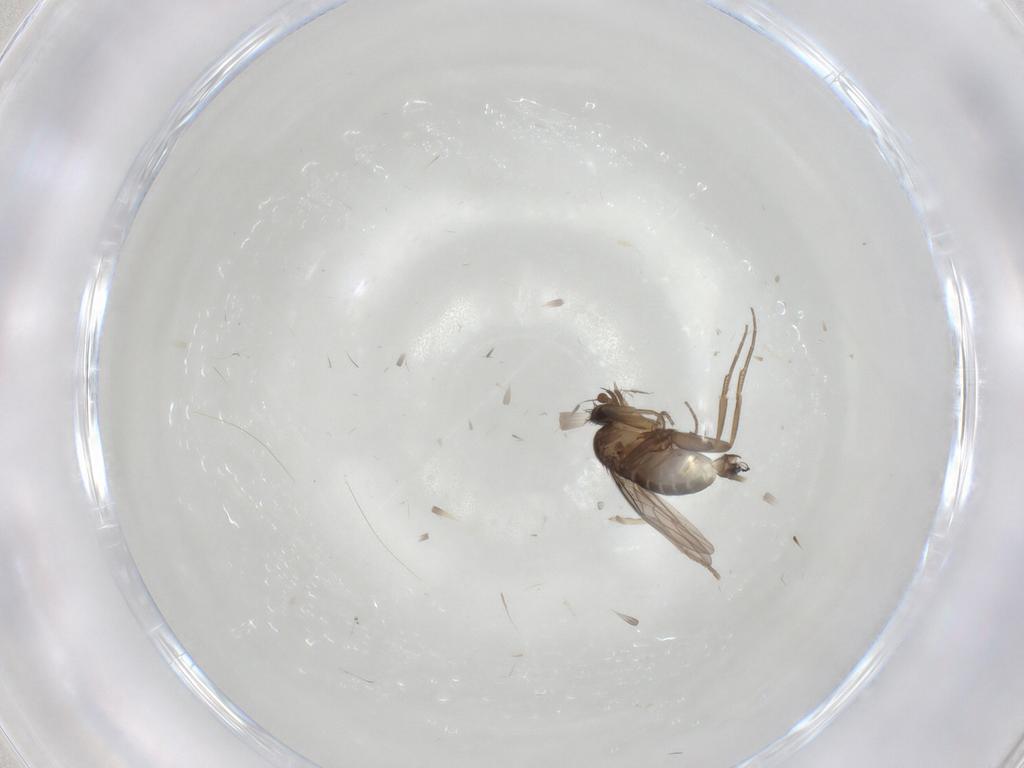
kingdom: Animalia
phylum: Arthropoda
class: Insecta
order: Diptera
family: Phoridae
